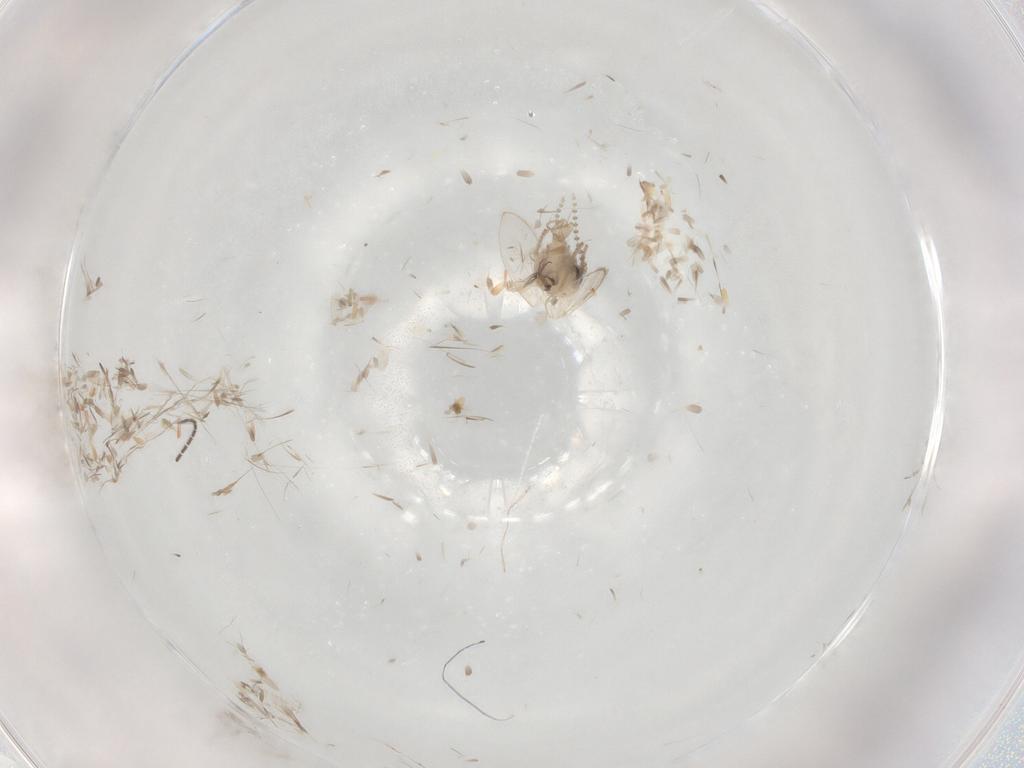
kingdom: Animalia
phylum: Arthropoda
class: Insecta
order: Diptera
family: Psychodidae
